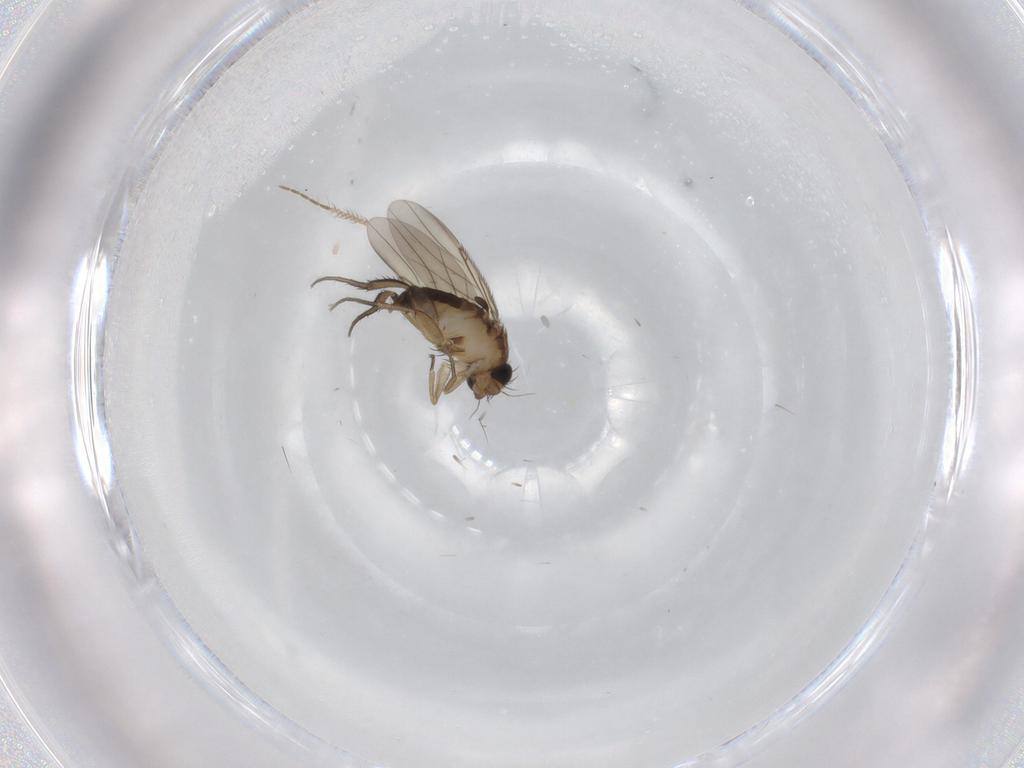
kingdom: Animalia
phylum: Arthropoda
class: Insecta
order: Diptera
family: Phoridae
